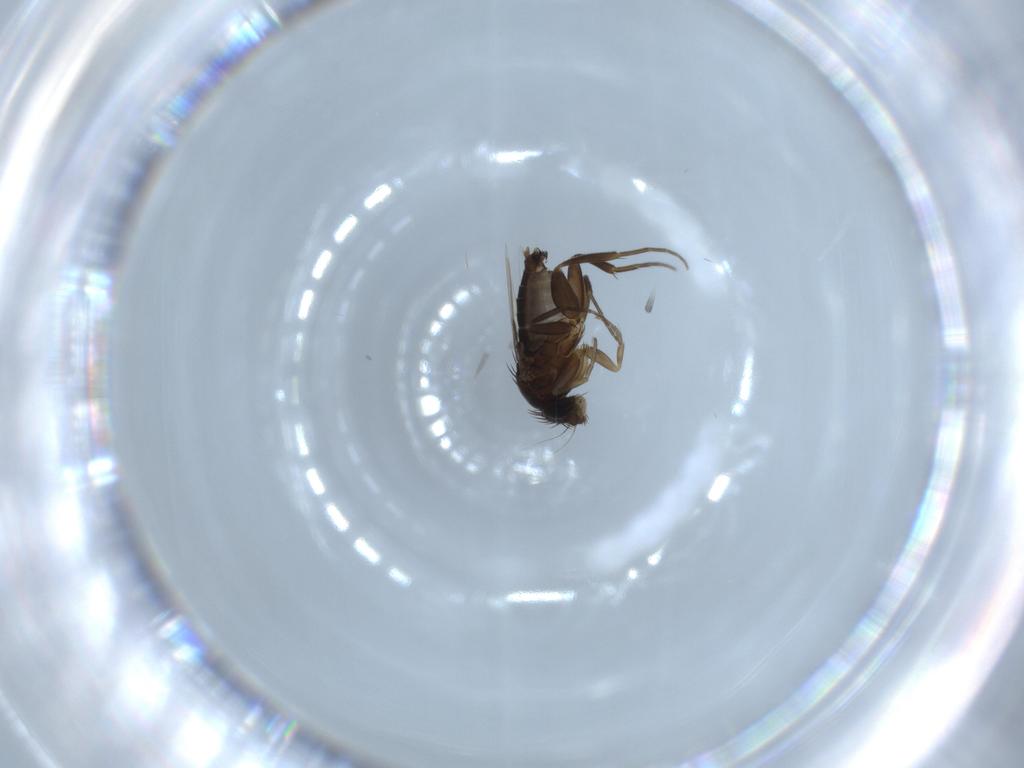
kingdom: Animalia
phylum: Arthropoda
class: Insecta
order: Diptera
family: Phoridae
